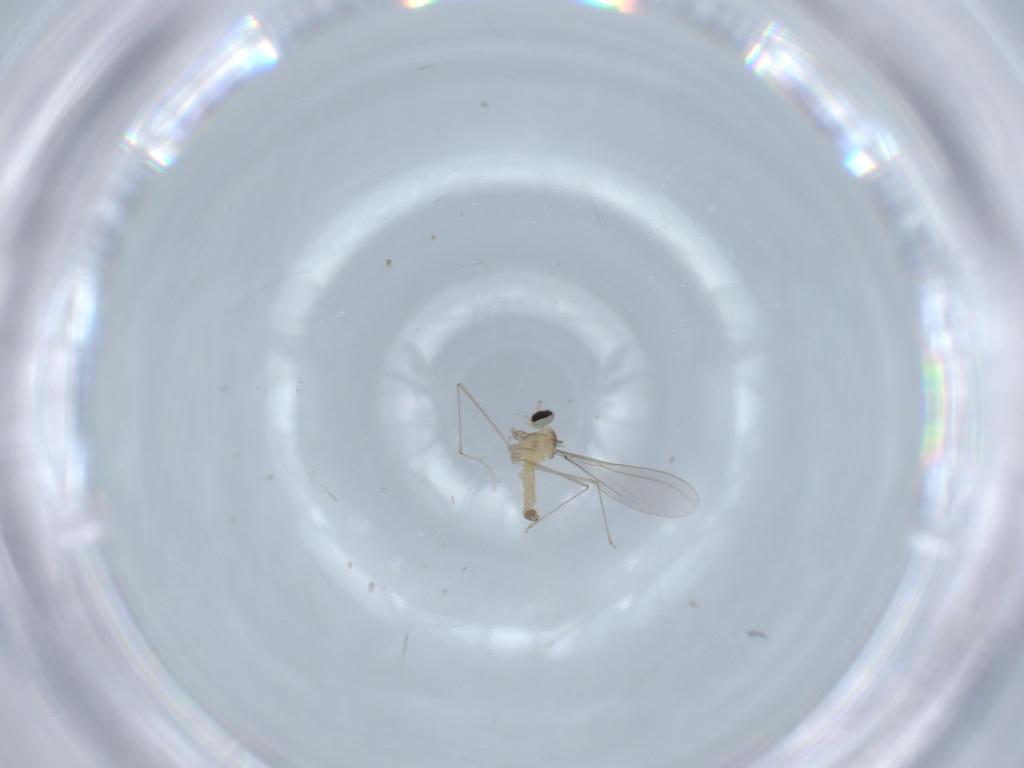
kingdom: Animalia
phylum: Arthropoda
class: Insecta
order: Diptera
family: Cecidomyiidae
